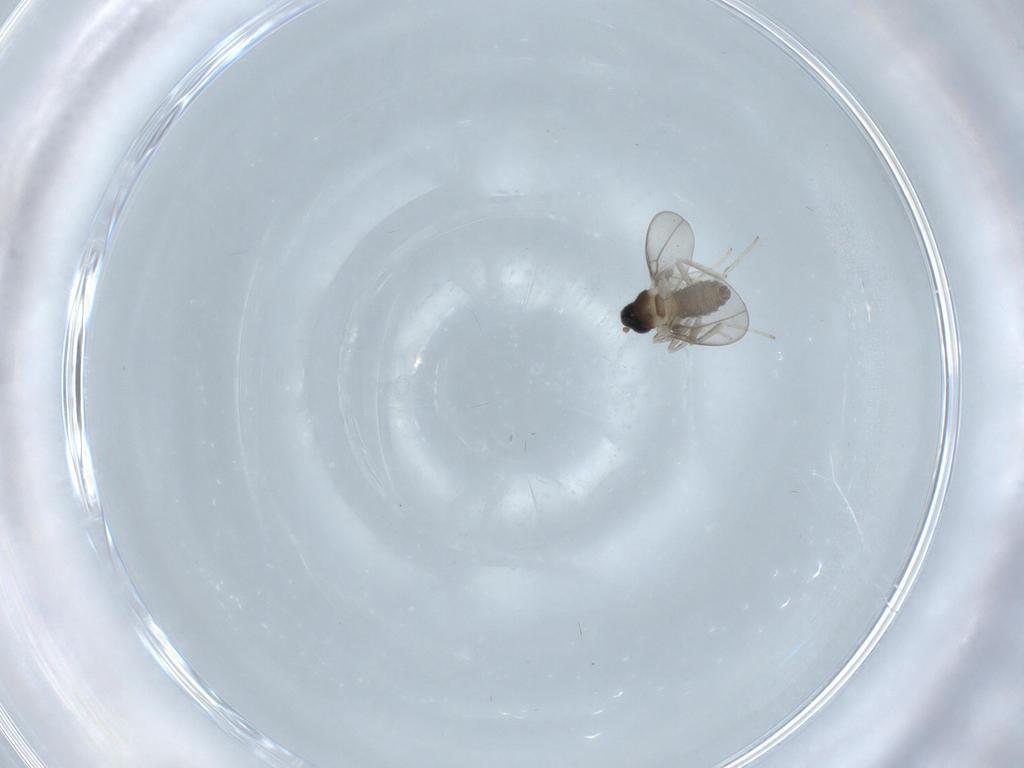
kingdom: Animalia
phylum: Arthropoda
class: Insecta
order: Diptera
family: Cecidomyiidae
